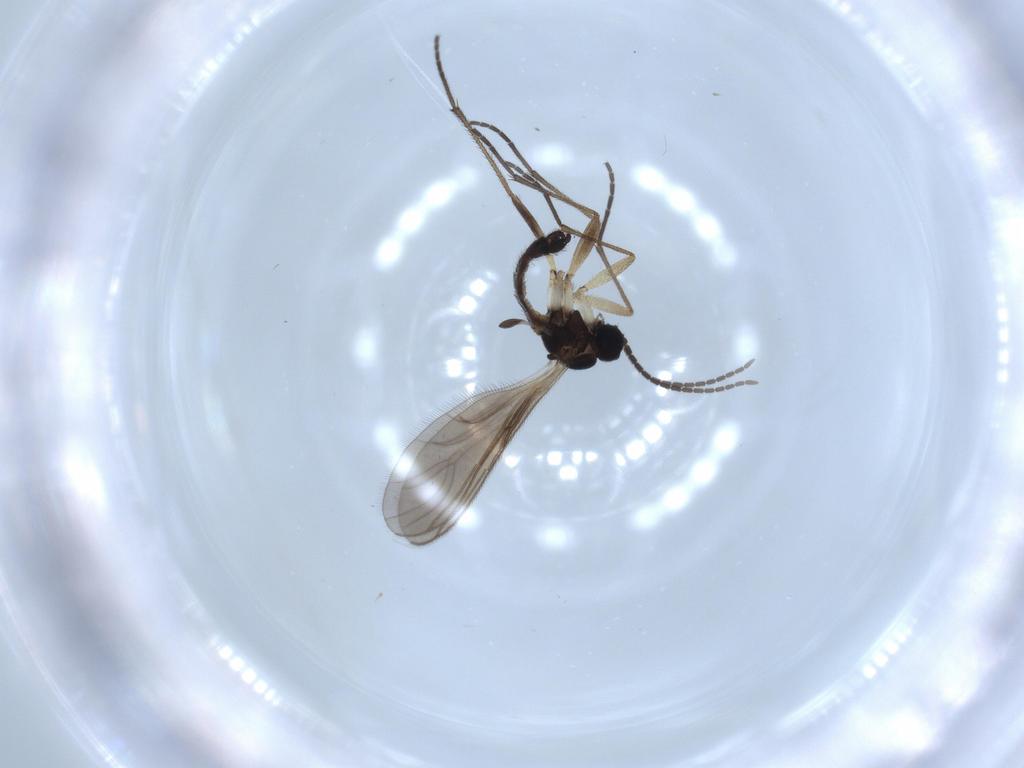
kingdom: Animalia
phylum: Arthropoda
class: Insecta
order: Diptera
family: Sciaridae
